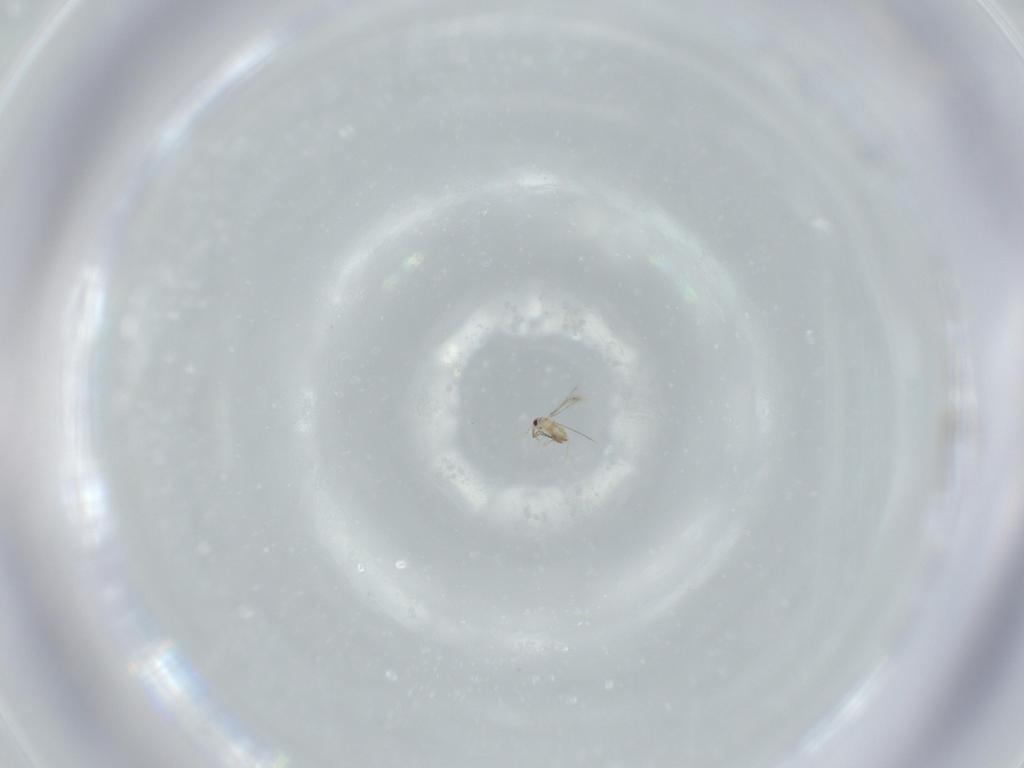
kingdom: Animalia
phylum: Arthropoda
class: Insecta
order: Hymenoptera
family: Mymaridae
